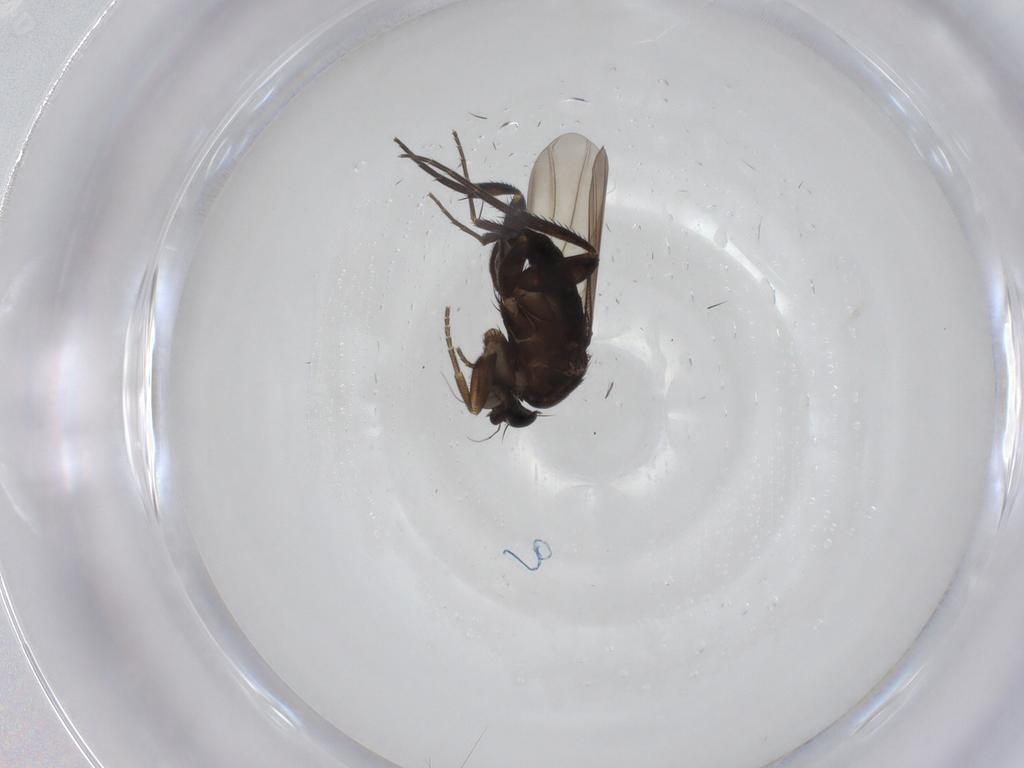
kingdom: Animalia
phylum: Arthropoda
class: Insecta
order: Diptera
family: Phoridae
